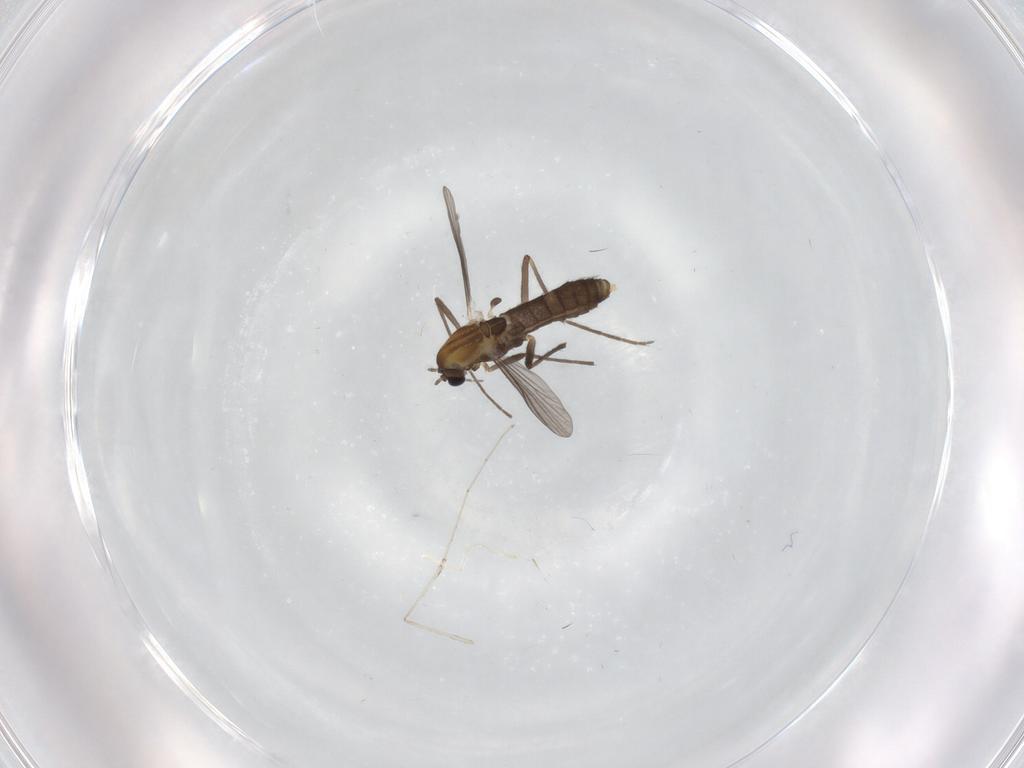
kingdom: Animalia
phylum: Arthropoda
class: Insecta
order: Diptera
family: Chironomidae
